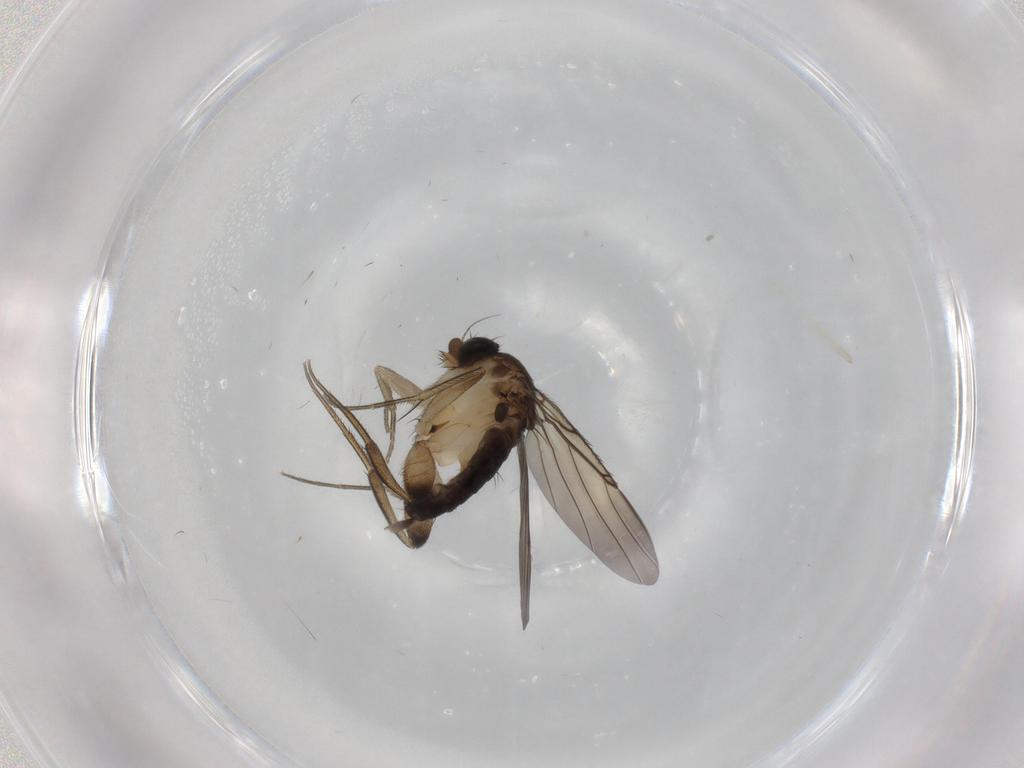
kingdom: Animalia
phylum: Arthropoda
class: Insecta
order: Diptera
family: Phoridae
